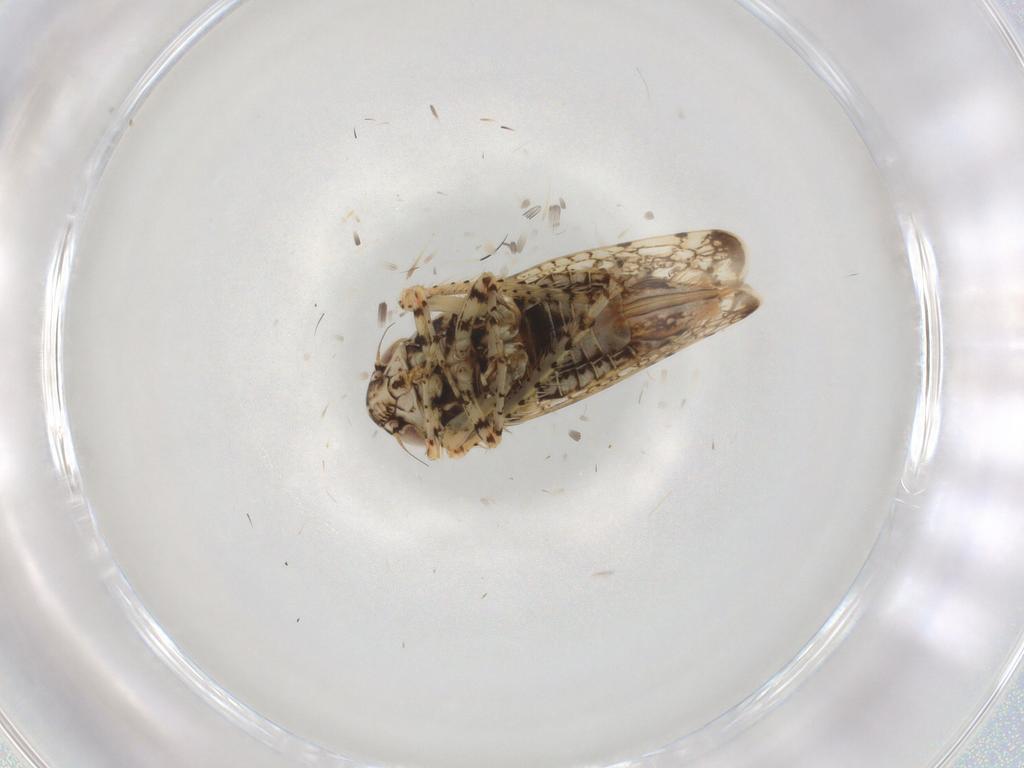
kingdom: Animalia
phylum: Arthropoda
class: Insecta
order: Hemiptera
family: Cicadellidae
